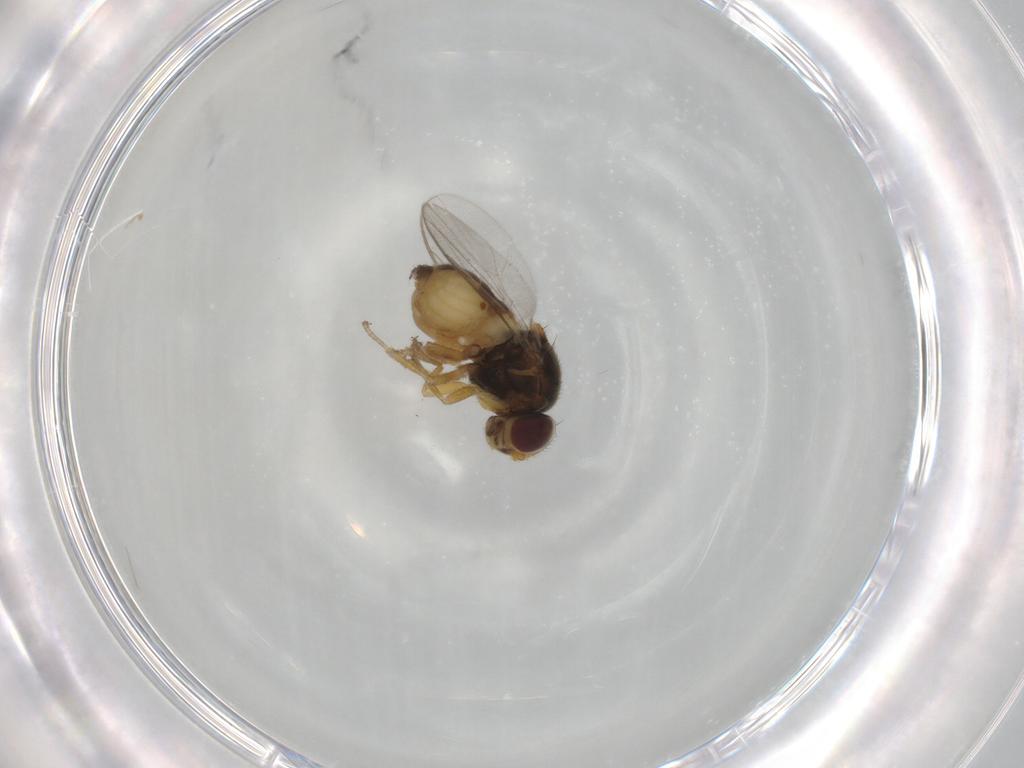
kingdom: Animalia
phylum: Arthropoda
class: Insecta
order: Diptera
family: Chloropidae
